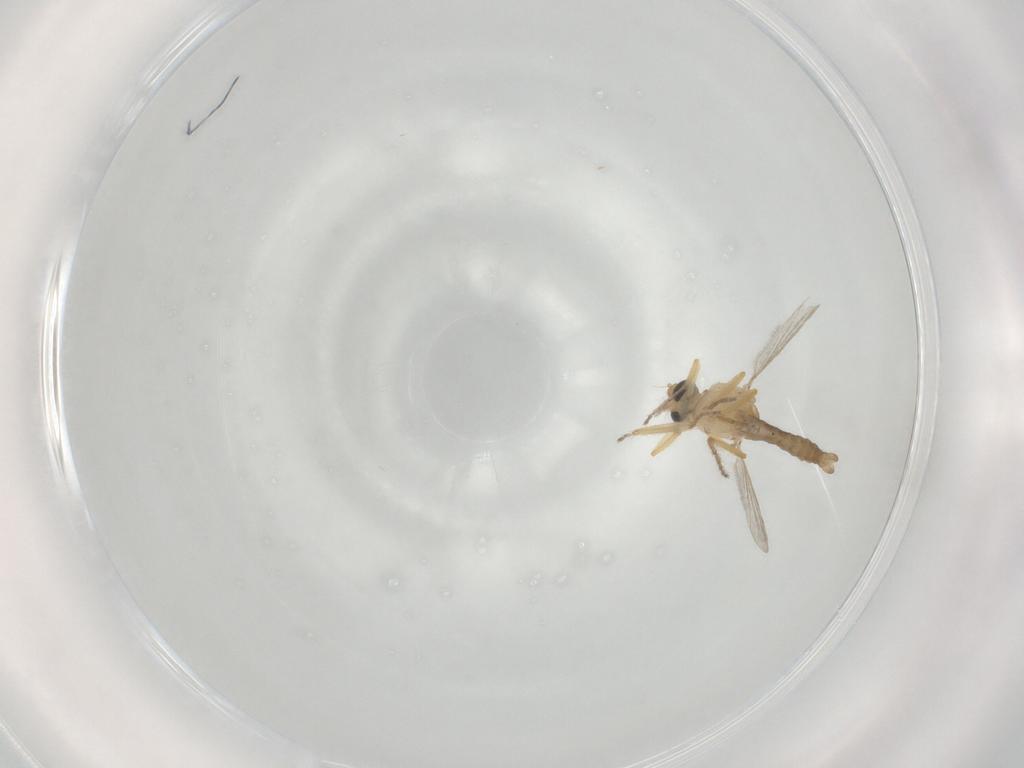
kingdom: Animalia
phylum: Arthropoda
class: Insecta
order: Diptera
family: Ceratopogonidae
